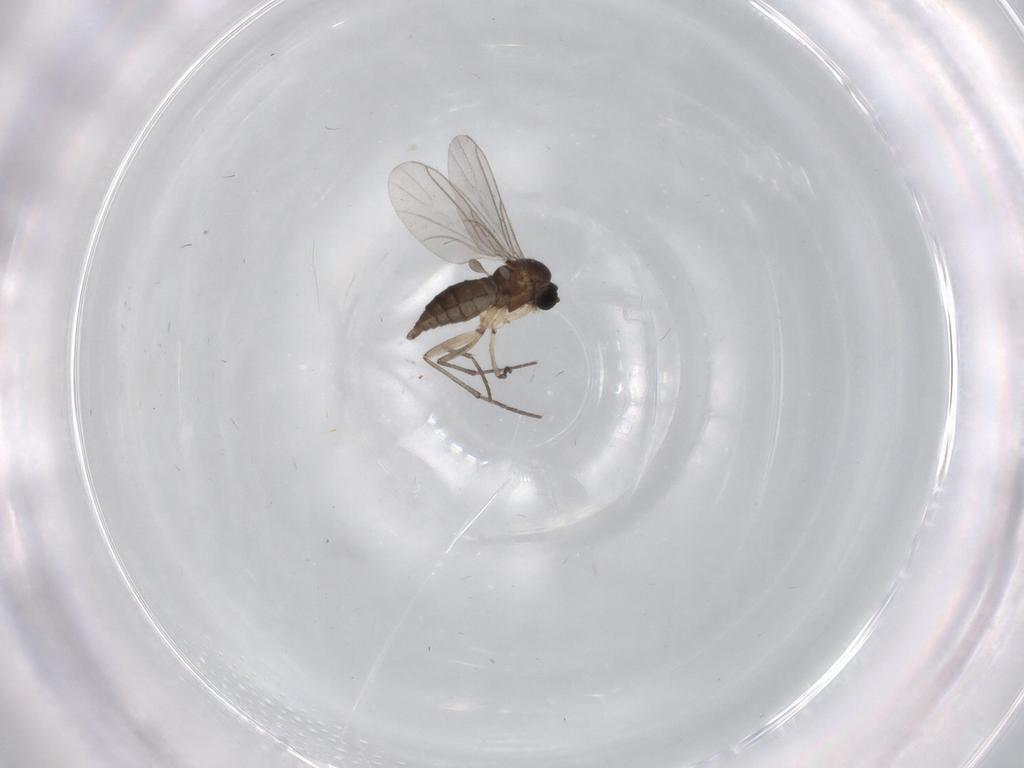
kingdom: Animalia
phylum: Arthropoda
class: Insecta
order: Diptera
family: Sciaridae
